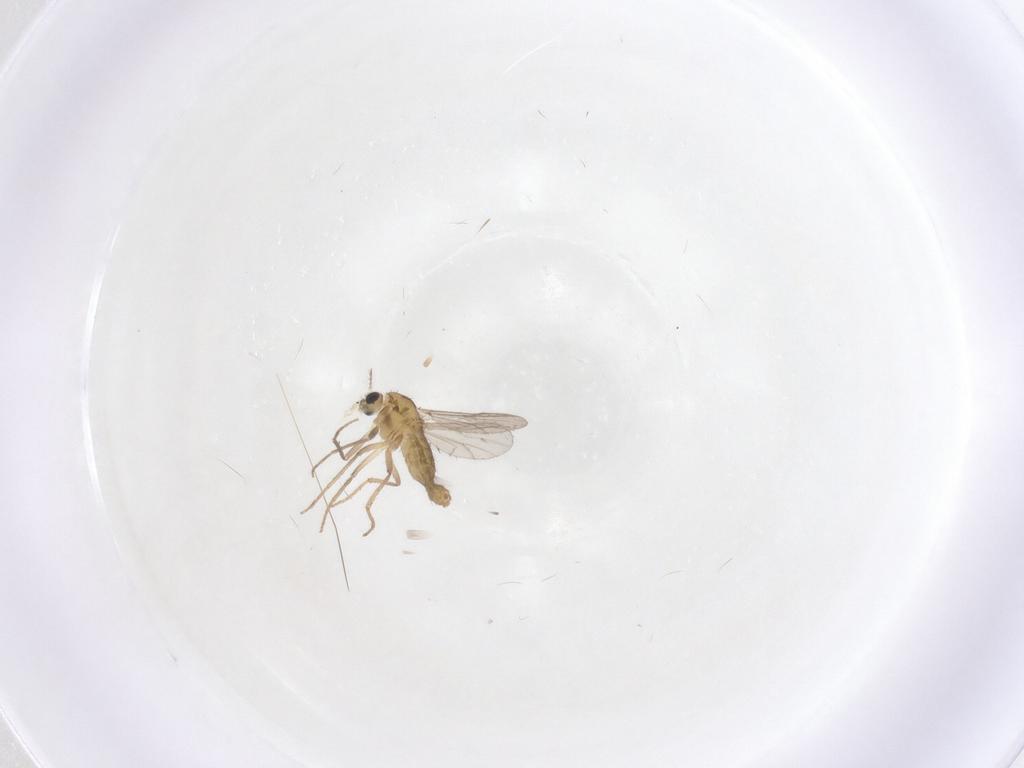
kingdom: Animalia
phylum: Arthropoda
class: Insecta
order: Diptera
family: Chironomidae
